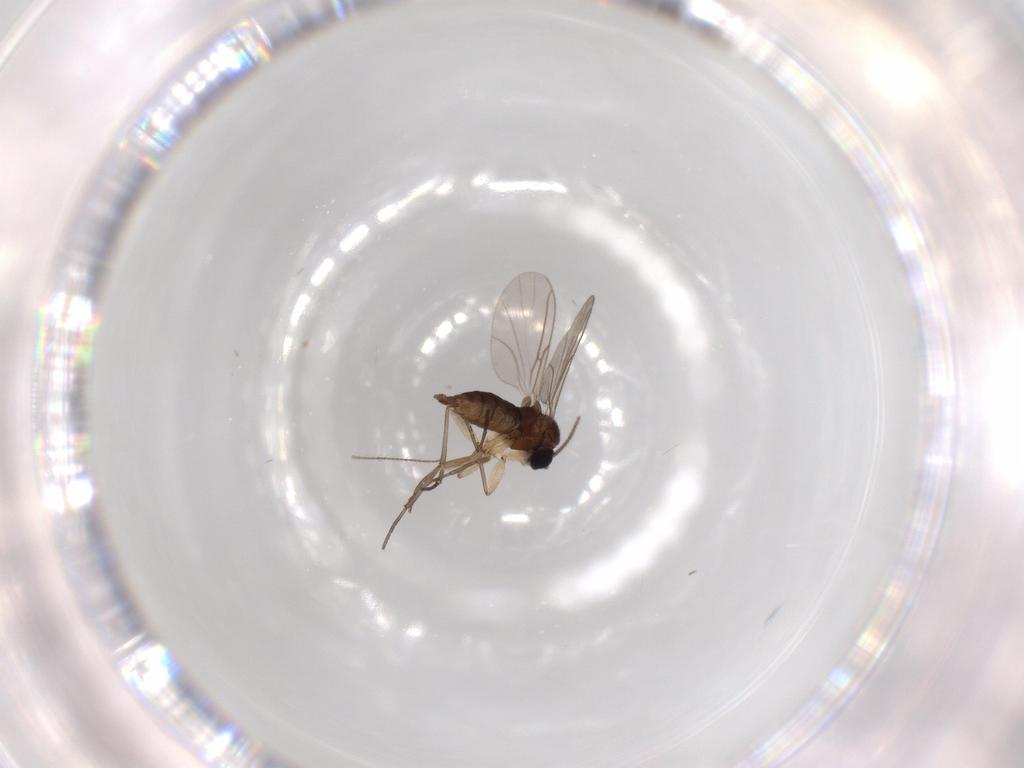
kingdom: Animalia
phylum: Arthropoda
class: Insecta
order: Diptera
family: Sciaridae
